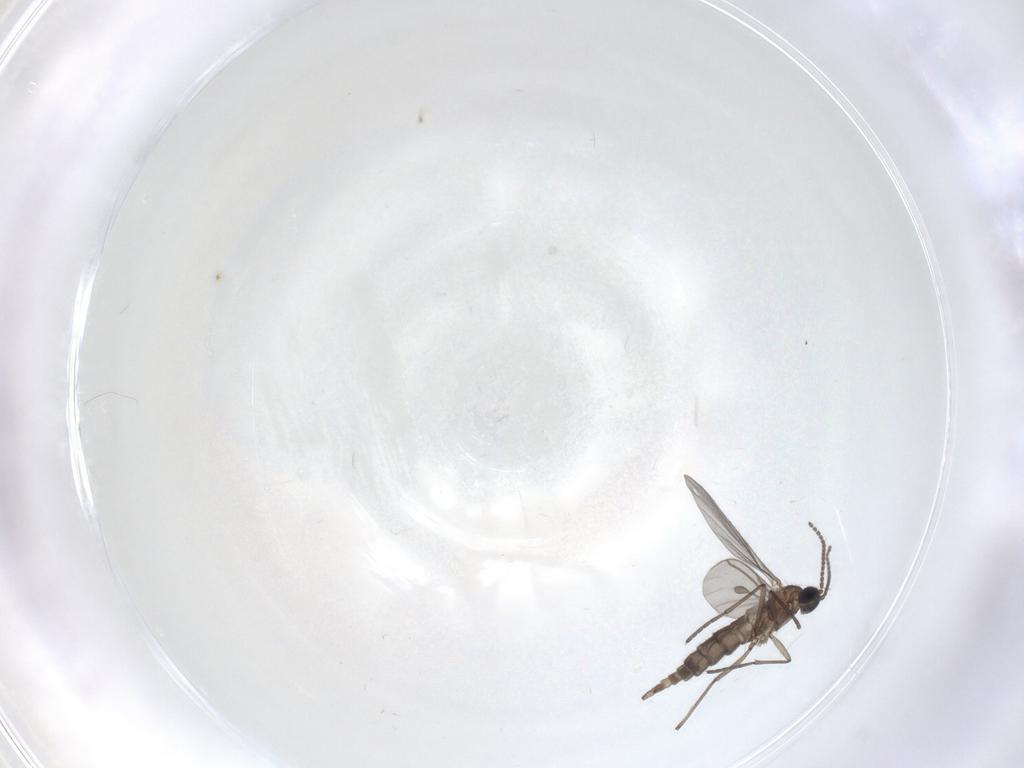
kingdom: Animalia
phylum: Arthropoda
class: Insecta
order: Diptera
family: Sciaridae
